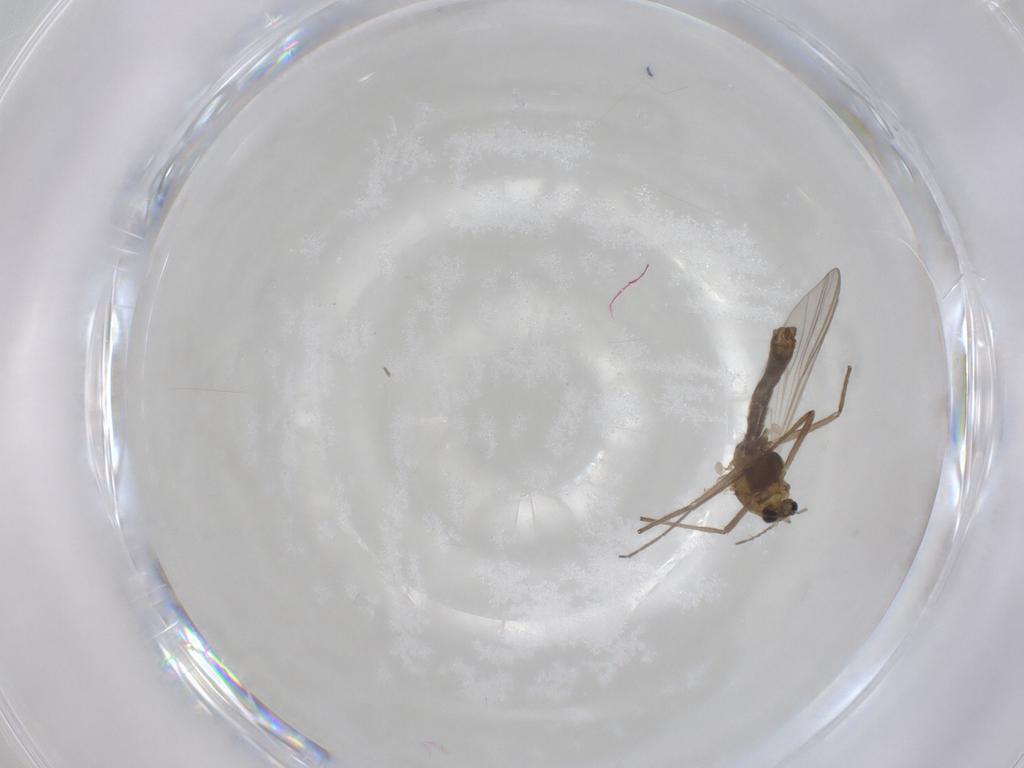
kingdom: Animalia
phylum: Arthropoda
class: Insecta
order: Diptera
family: Chironomidae
